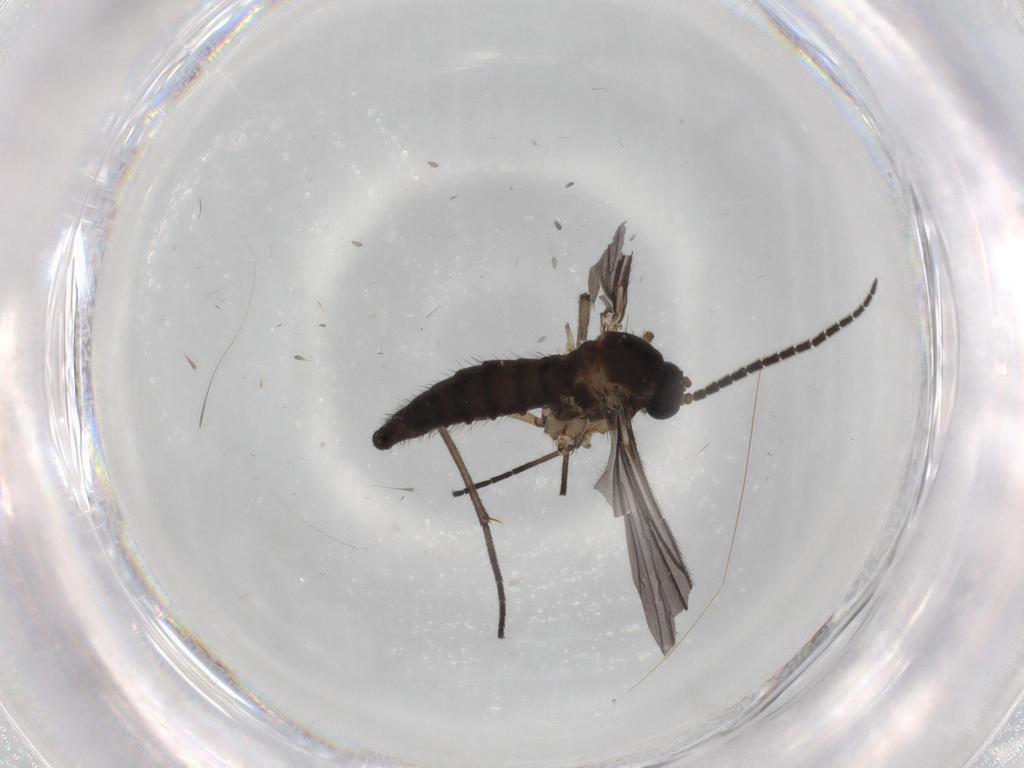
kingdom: Animalia
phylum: Arthropoda
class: Insecta
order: Diptera
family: Sciaridae
